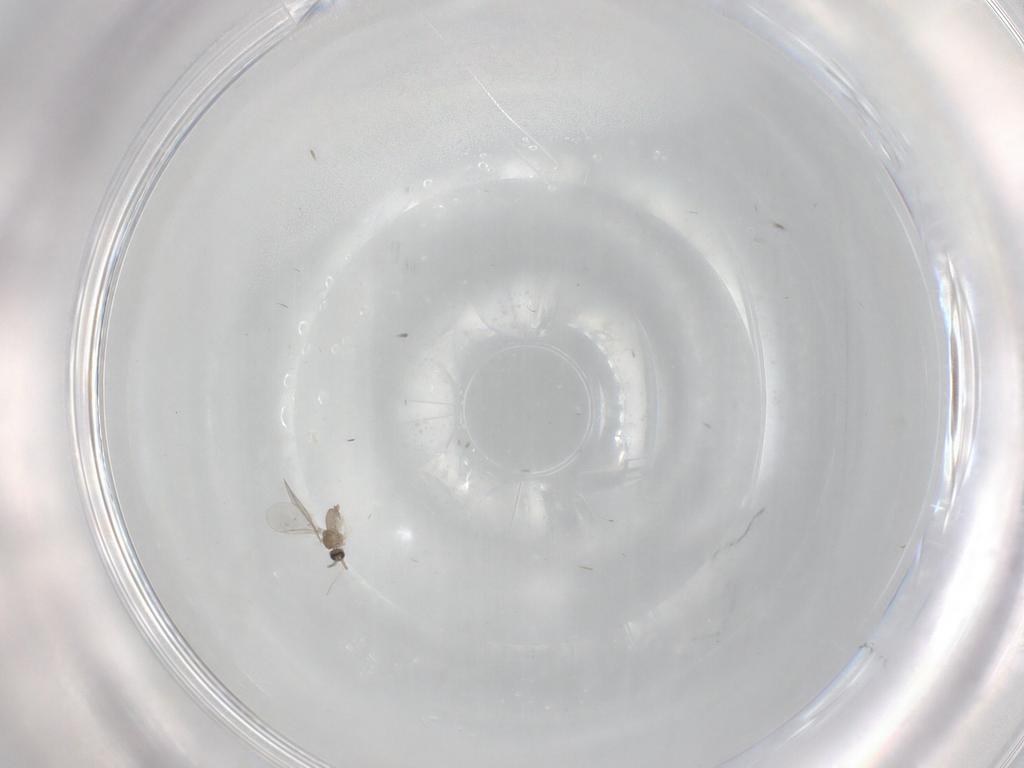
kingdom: Animalia
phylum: Arthropoda
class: Insecta
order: Diptera
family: Cecidomyiidae
